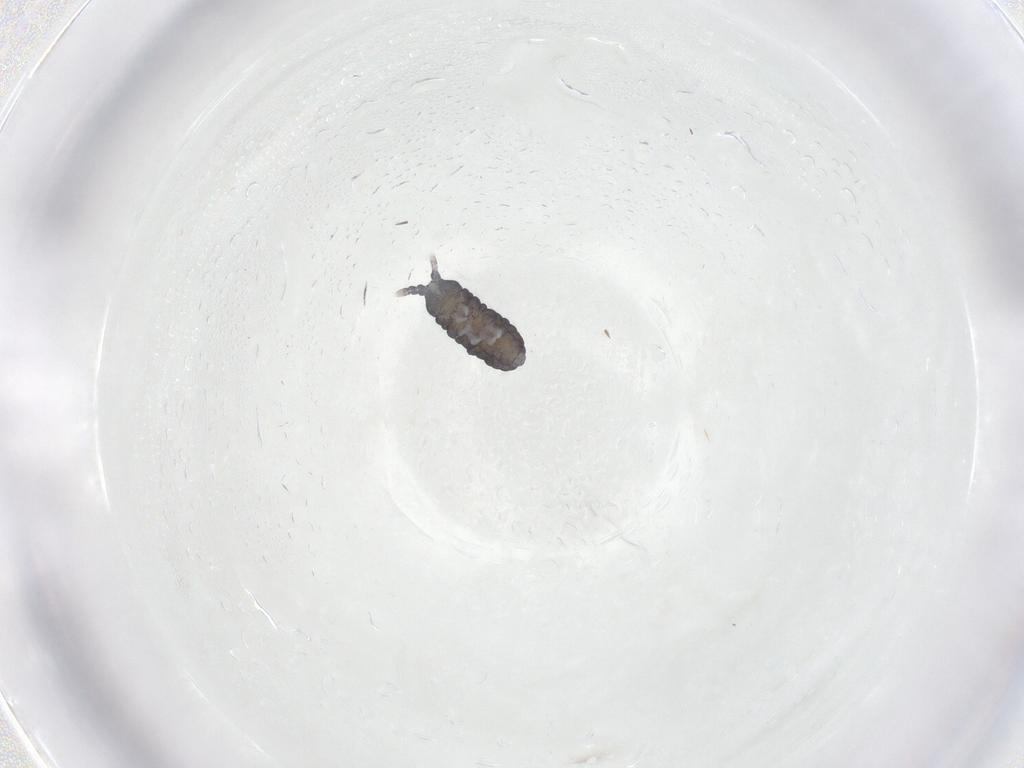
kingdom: Animalia
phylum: Arthropoda
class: Collembola
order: Poduromorpha
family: Neanuridae
